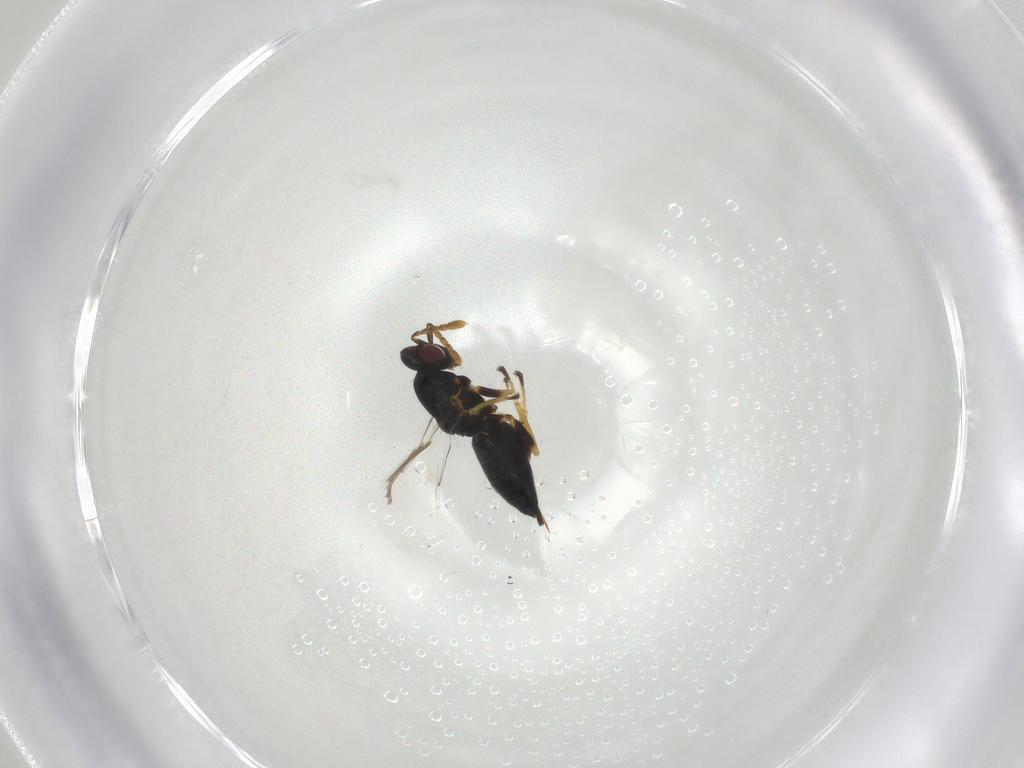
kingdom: Animalia
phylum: Arthropoda
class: Insecta
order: Hymenoptera
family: Eulophidae
